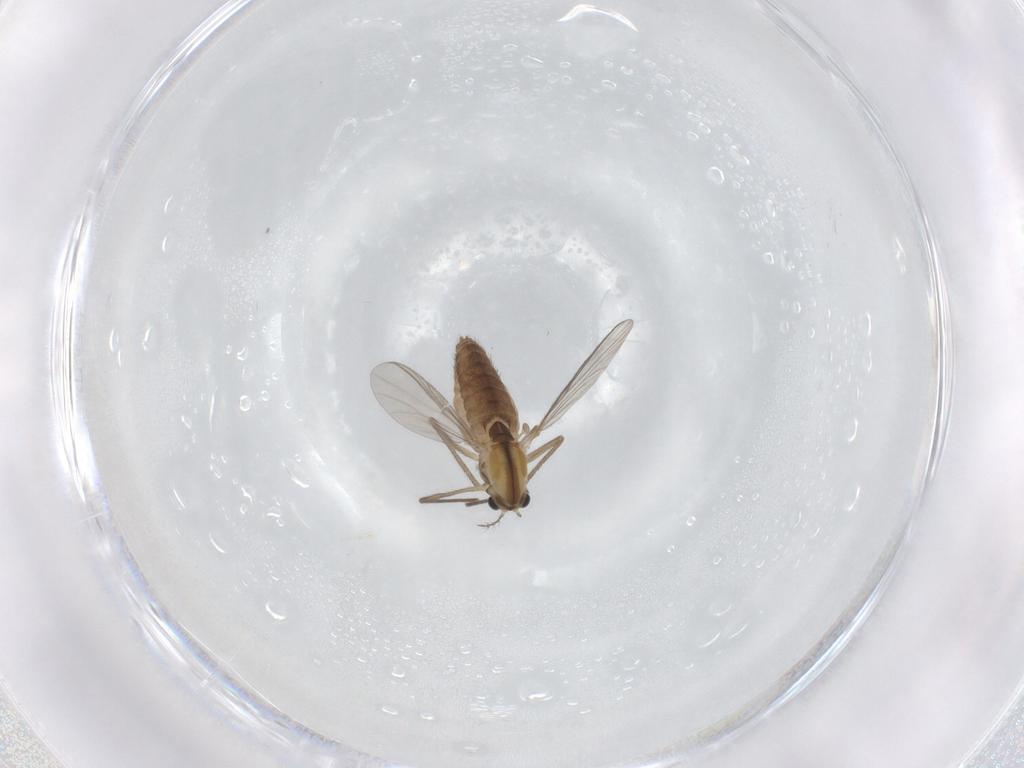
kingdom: Animalia
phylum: Arthropoda
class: Insecta
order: Diptera
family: Chironomidae
